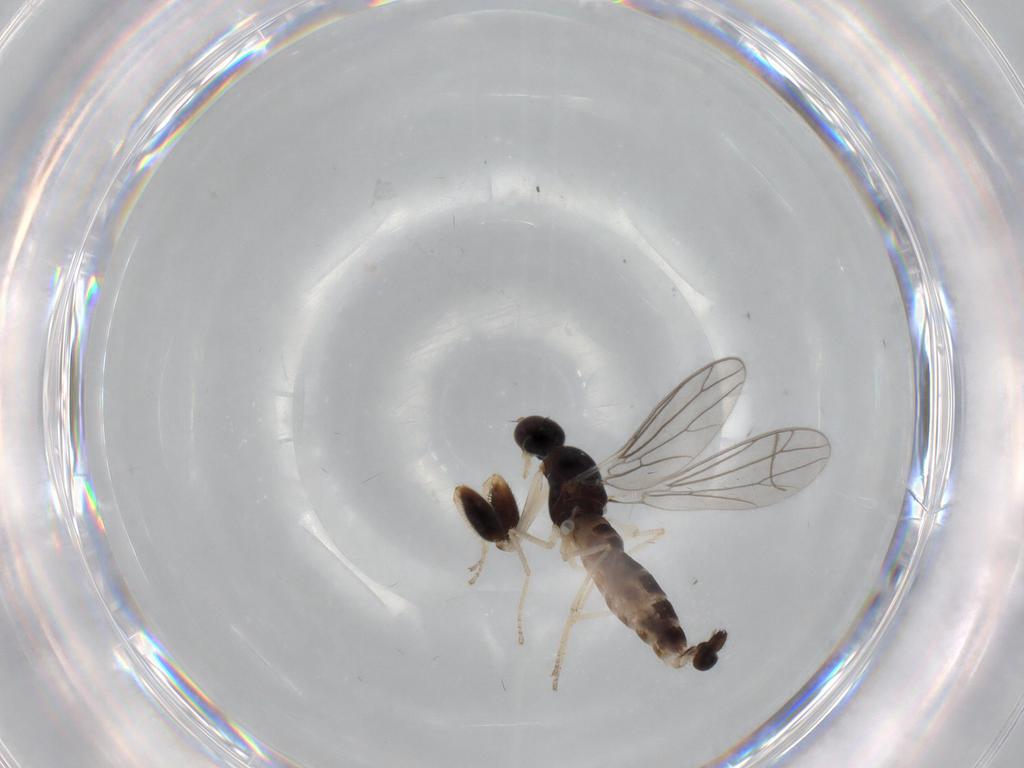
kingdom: Animalia
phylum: Arthropoda
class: Insecta
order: Diptera
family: Empididae
